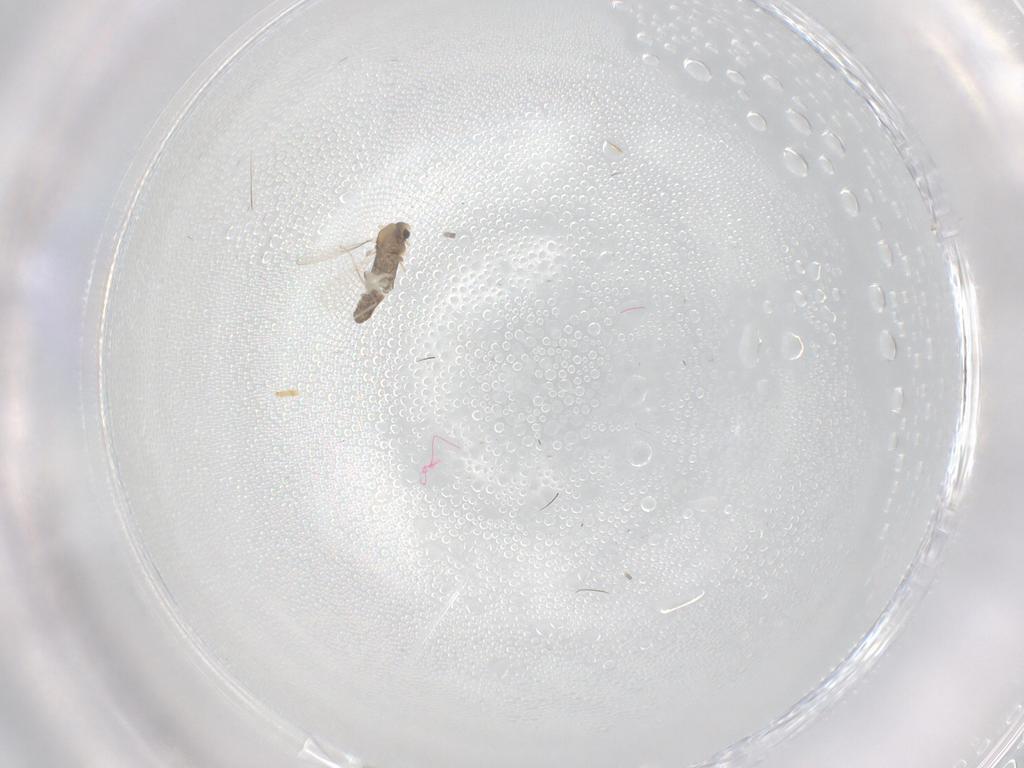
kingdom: Animalia
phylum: Arthropoda
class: Insecta
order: Diptera
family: Chironomidae
